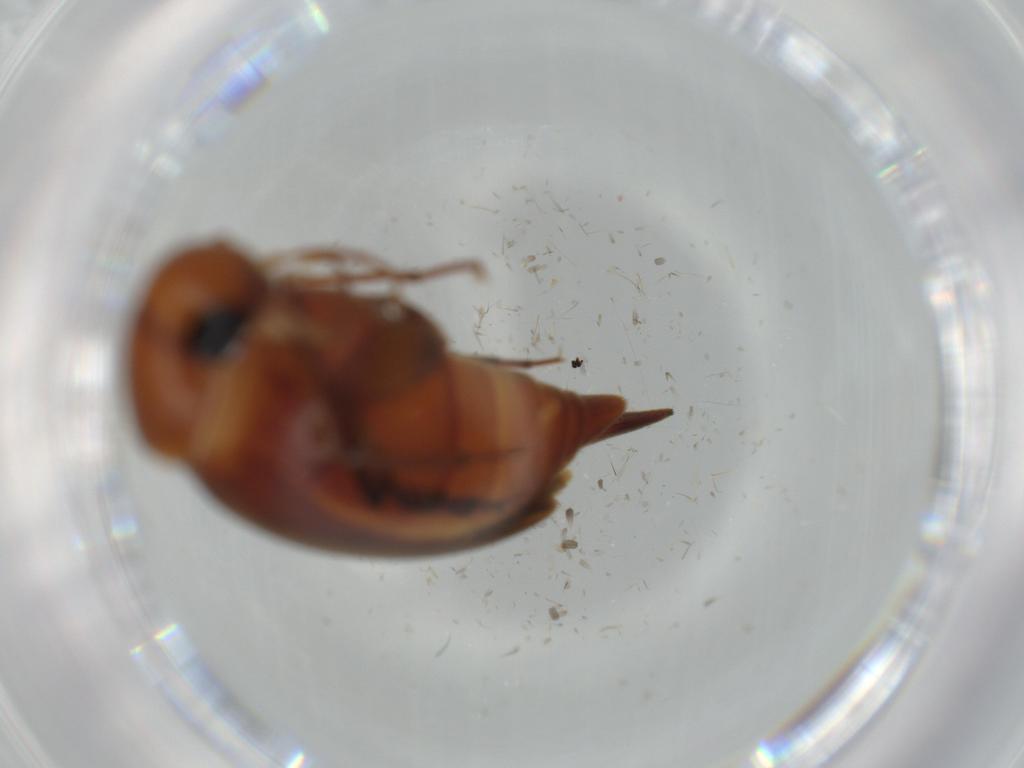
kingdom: Animalia
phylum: Arthropoda
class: Insecta
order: Coleoptera
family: Mordellidae
